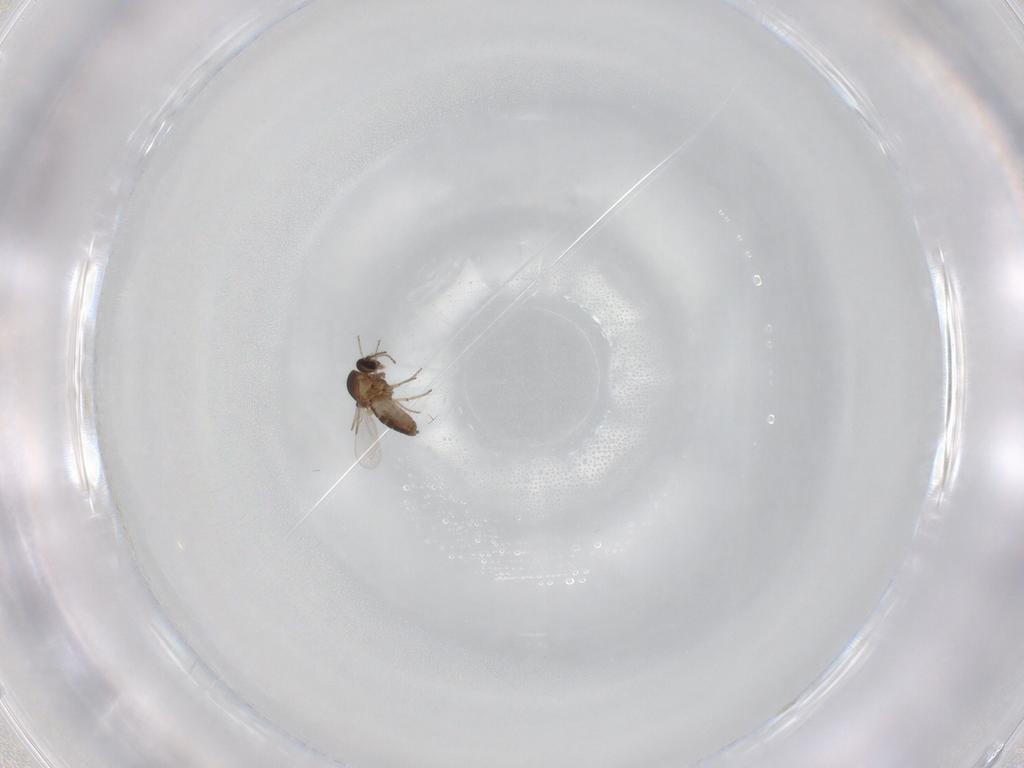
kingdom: Animalia
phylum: Arthropoda
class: Insecta
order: Diptera
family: Ceratopogonidae
